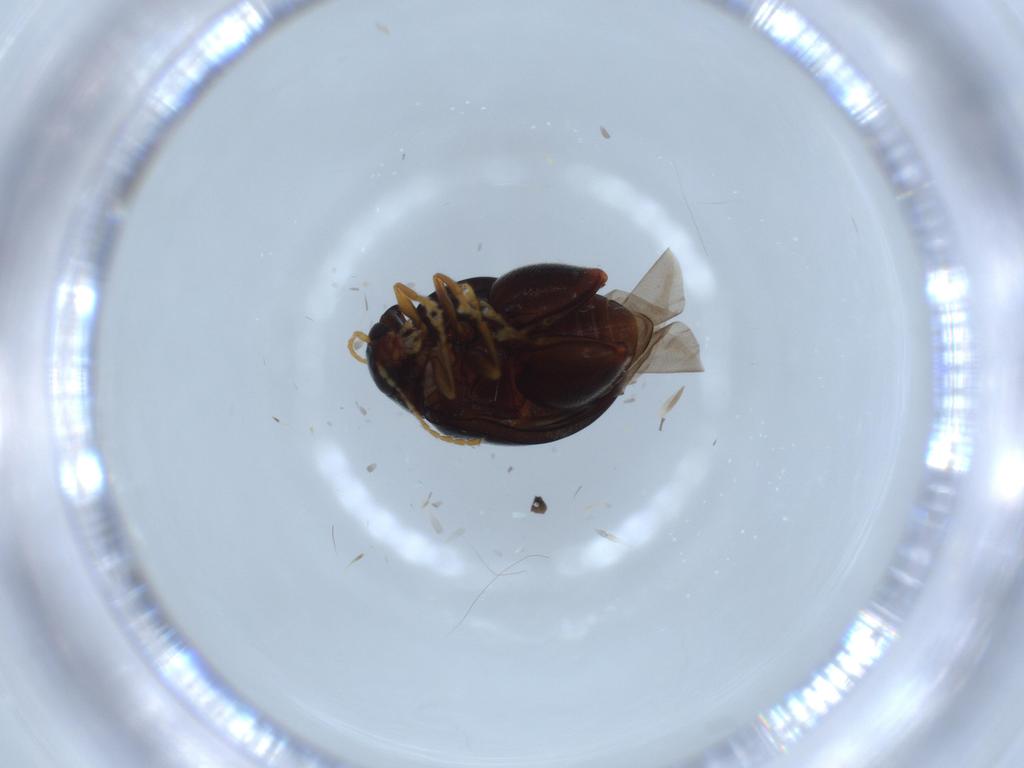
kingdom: Animalia
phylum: Arthropoda
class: Insecta
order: Coleoptera
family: Chrysomelidae
